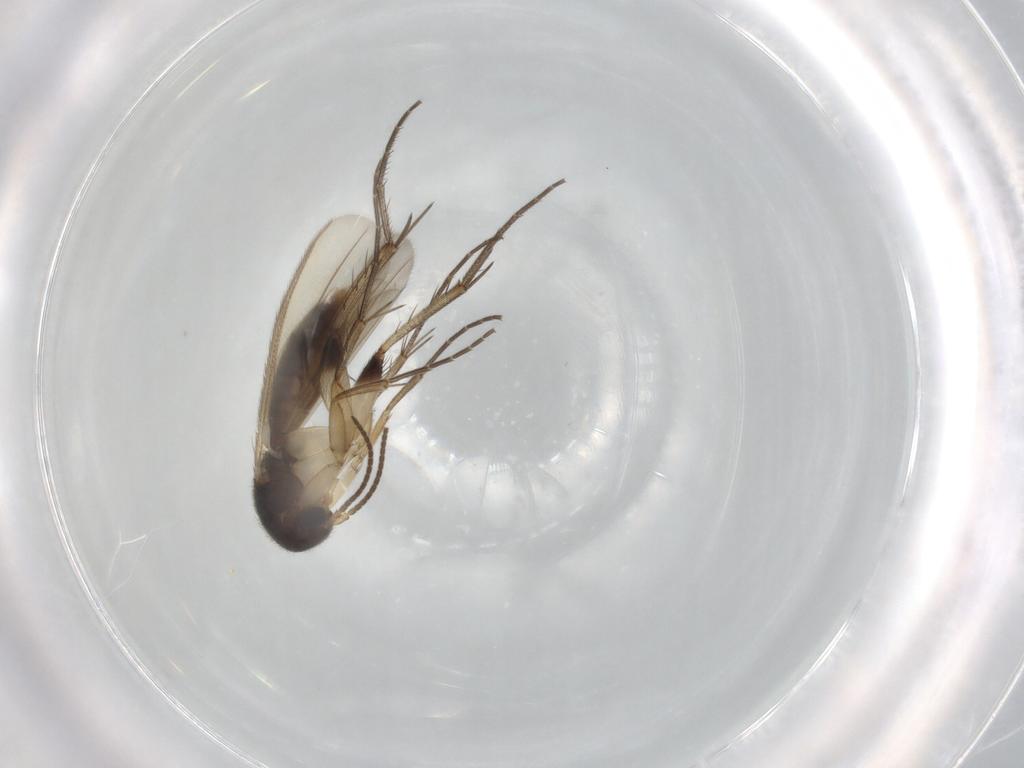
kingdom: Animalia
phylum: Arthropoda
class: Insecta
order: Diptera
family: Mycetophilidae
